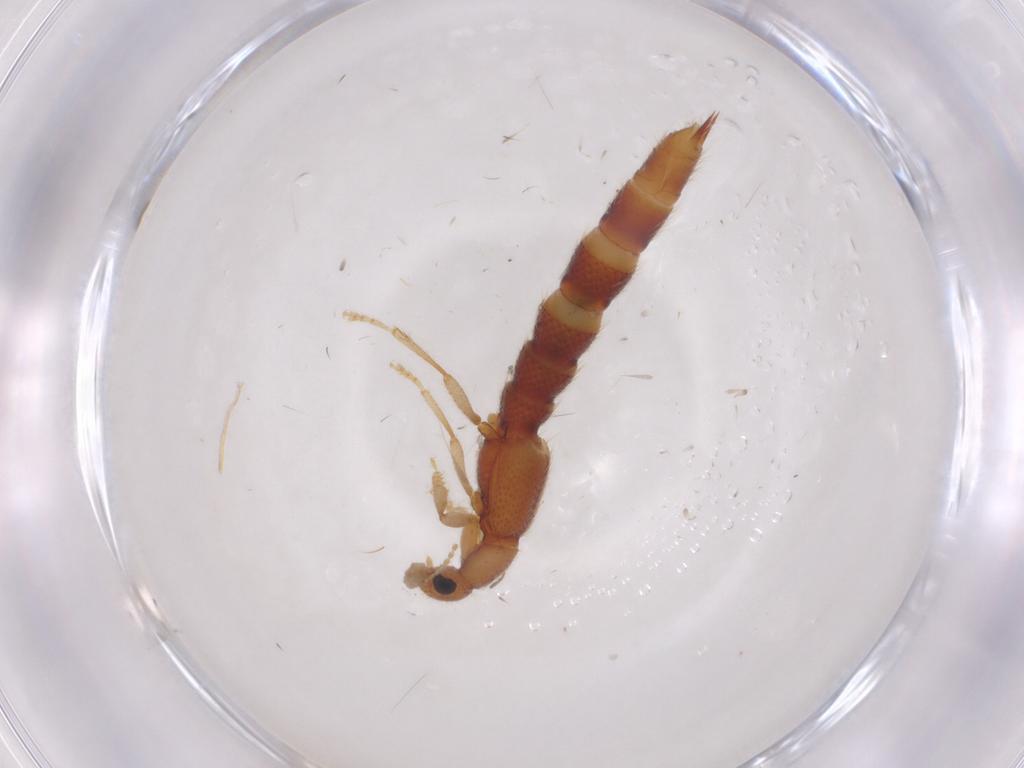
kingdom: Animalia
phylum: Arthropoda
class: Insecta
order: Coleoptera
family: Staphylinidae
